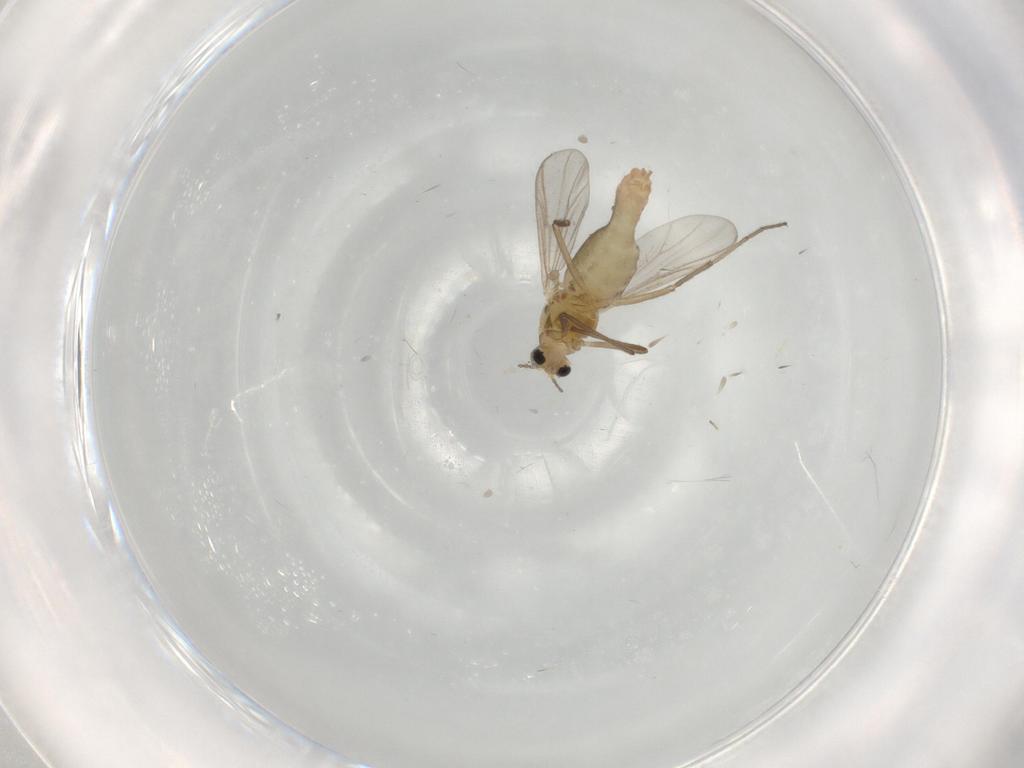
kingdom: Animalia
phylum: Arthropoda
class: Insecta
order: Diptera
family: Chironomidae
